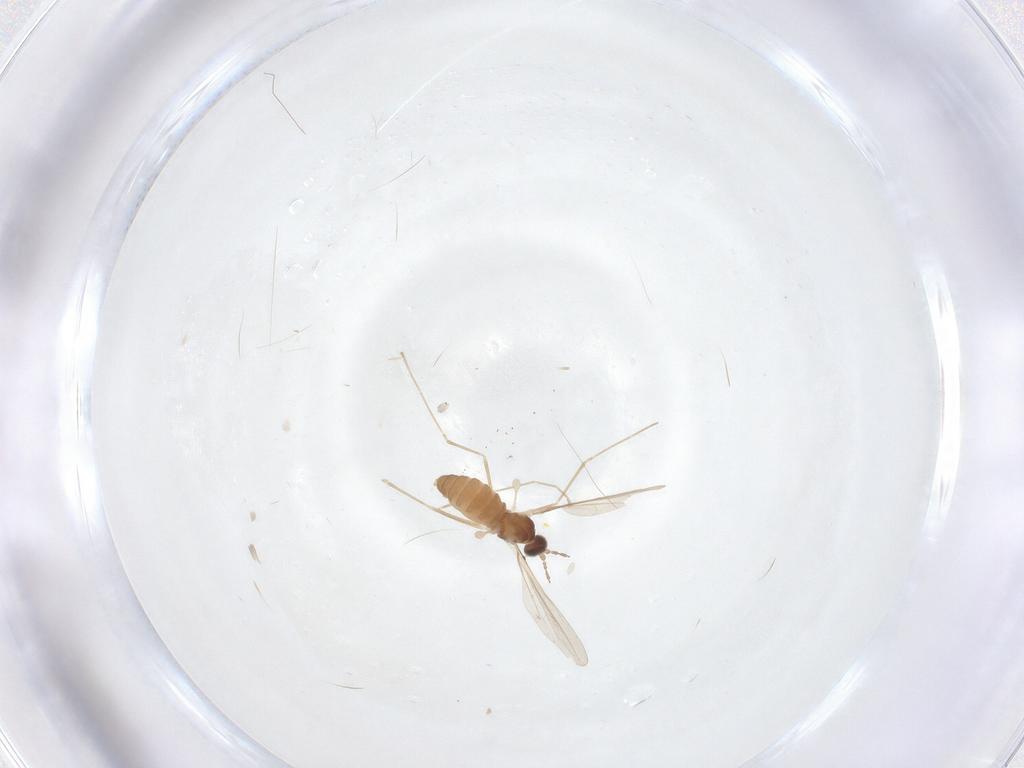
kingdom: Animalia
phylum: Arthropoda
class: Insecta
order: Diptera
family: Cecidomyiidae
